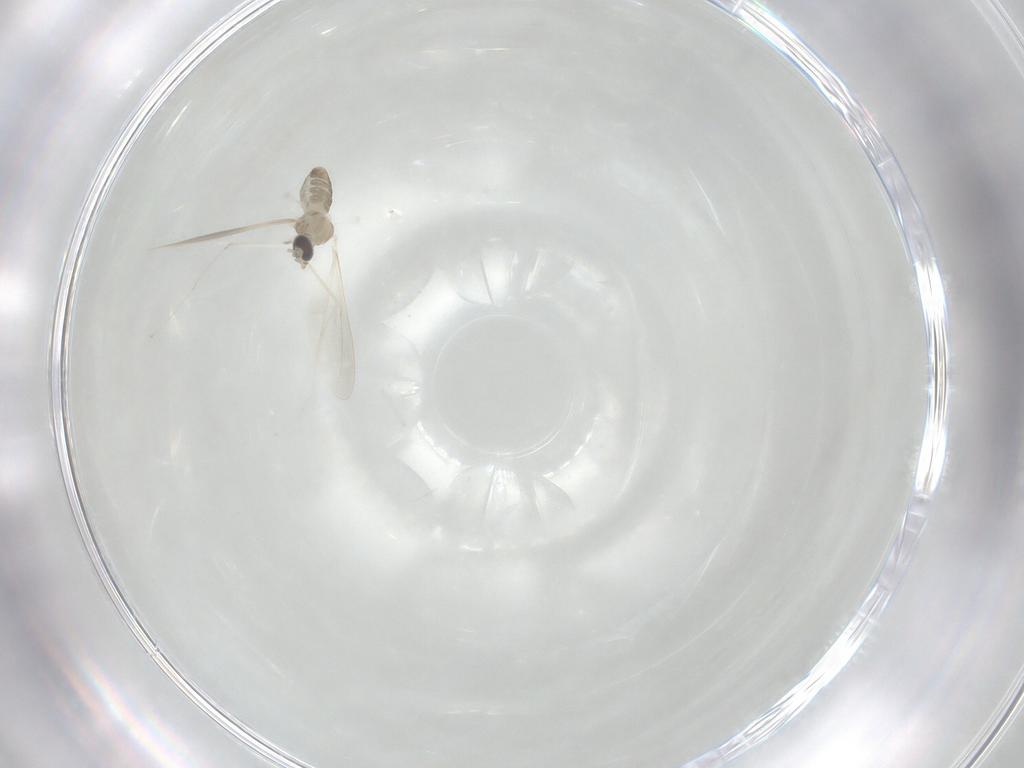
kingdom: Animalia
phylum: Arthropoda
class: Insecta
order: Diptera
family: Cecidomyiidae
